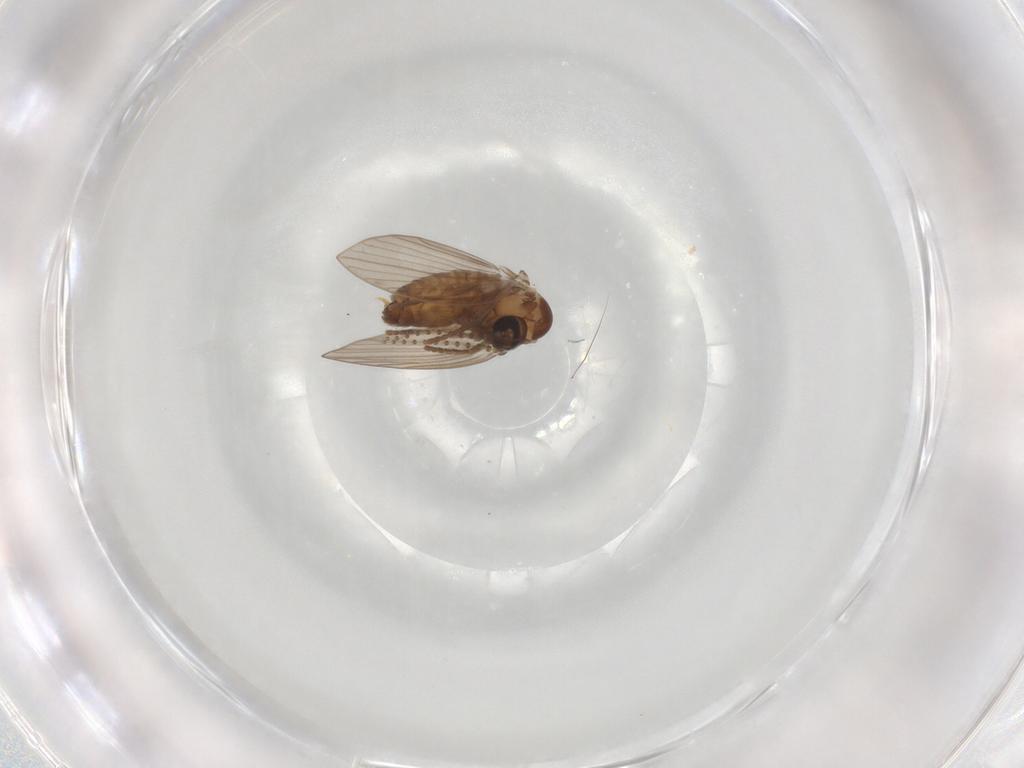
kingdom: Animalia
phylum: Arthropoda
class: Insecta
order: Diptera
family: Psychodidae
